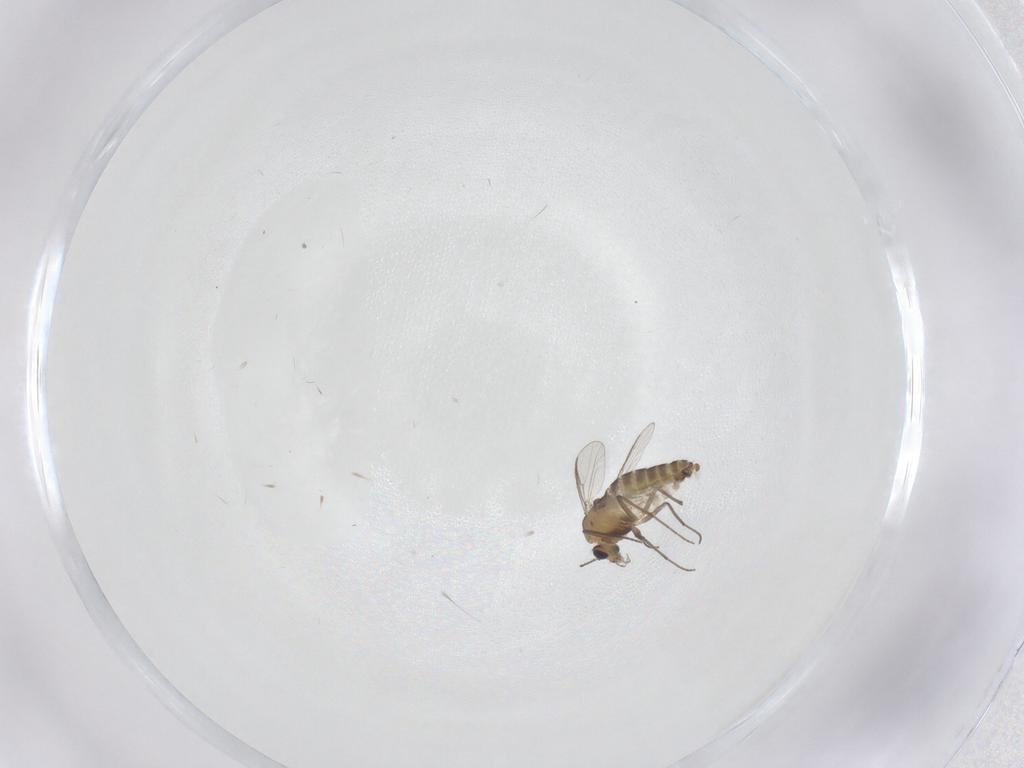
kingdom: Animalia
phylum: Arthropoda
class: Insecta
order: Diptera
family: Chironomidae
